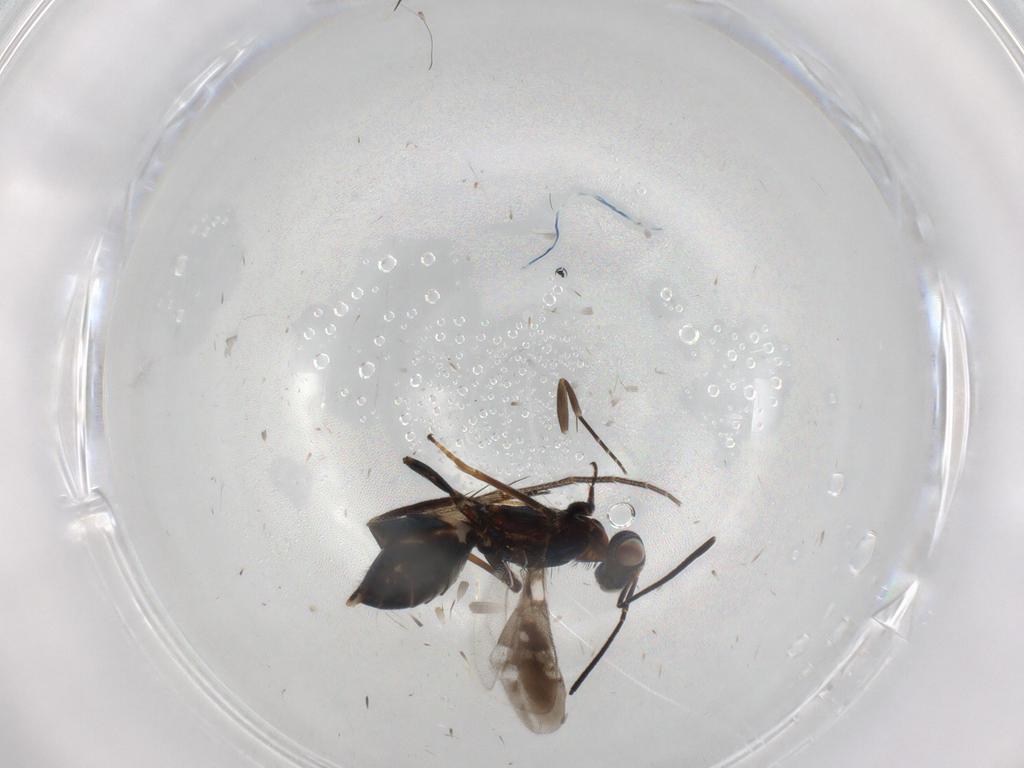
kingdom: Animalia
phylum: Arthropoda
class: Insecta
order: Hymenoptera
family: Eupelmidae
